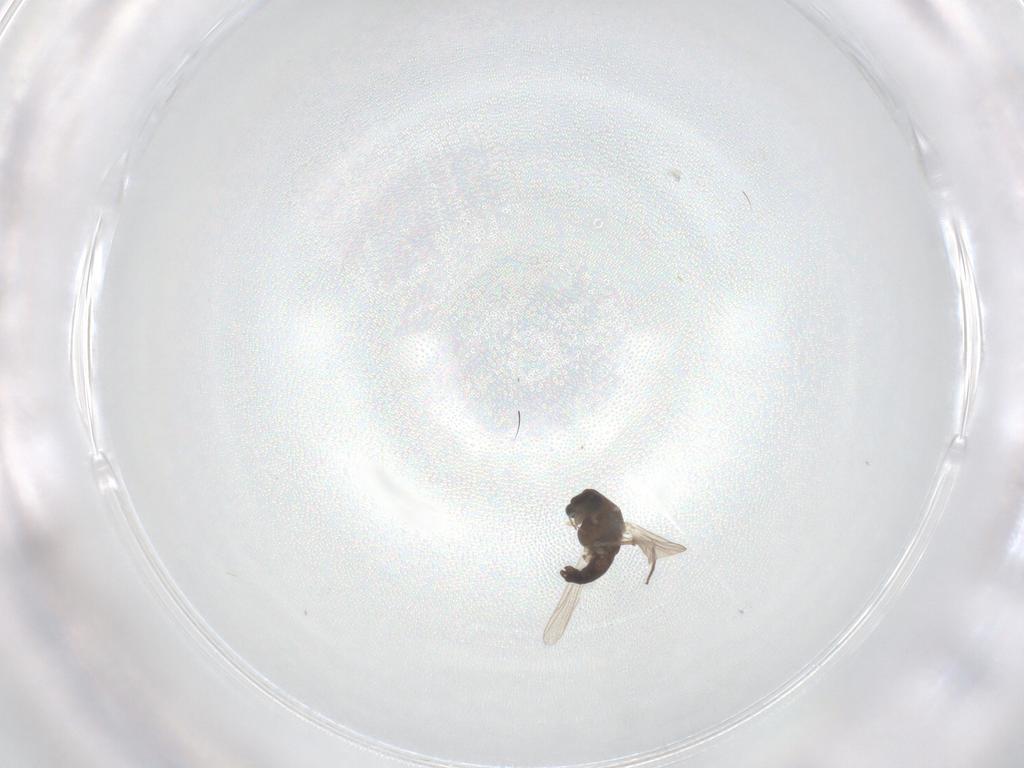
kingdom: Animalia
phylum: Arthropoda
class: Insecta
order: Diptera
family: Chironomidae
